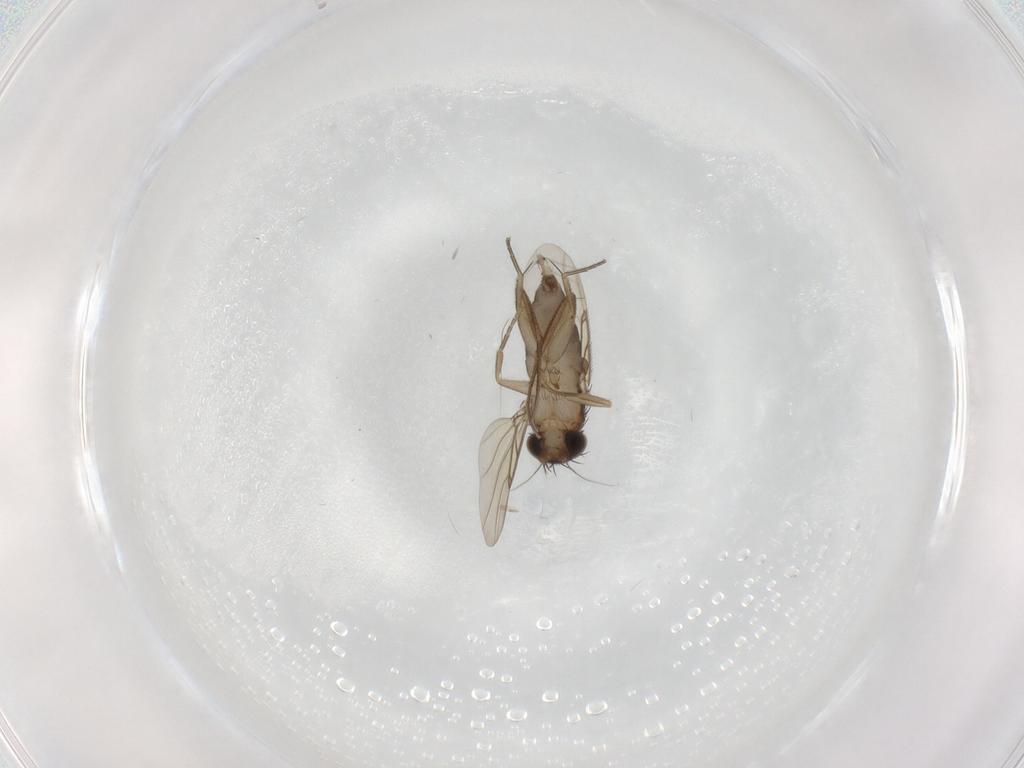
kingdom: Animalia
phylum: Arthropoda
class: Insecta
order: Diptera
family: Phoridae
